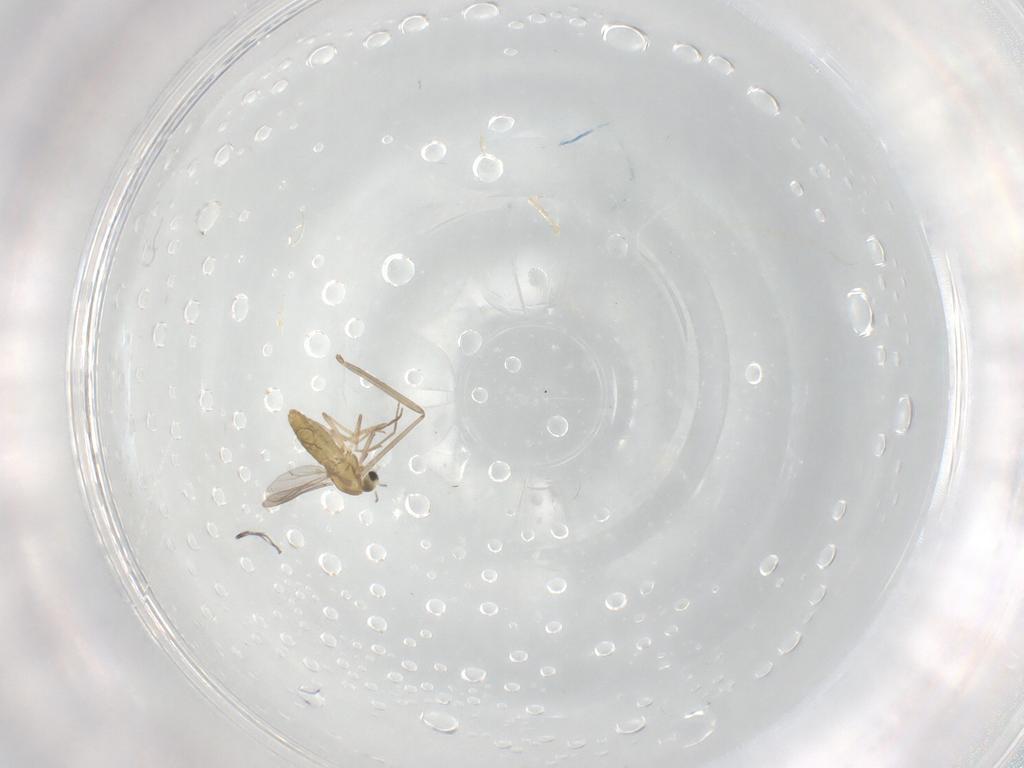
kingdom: Animalia
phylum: Arthropoda
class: Insecta
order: Diptera
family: Chironomidae
